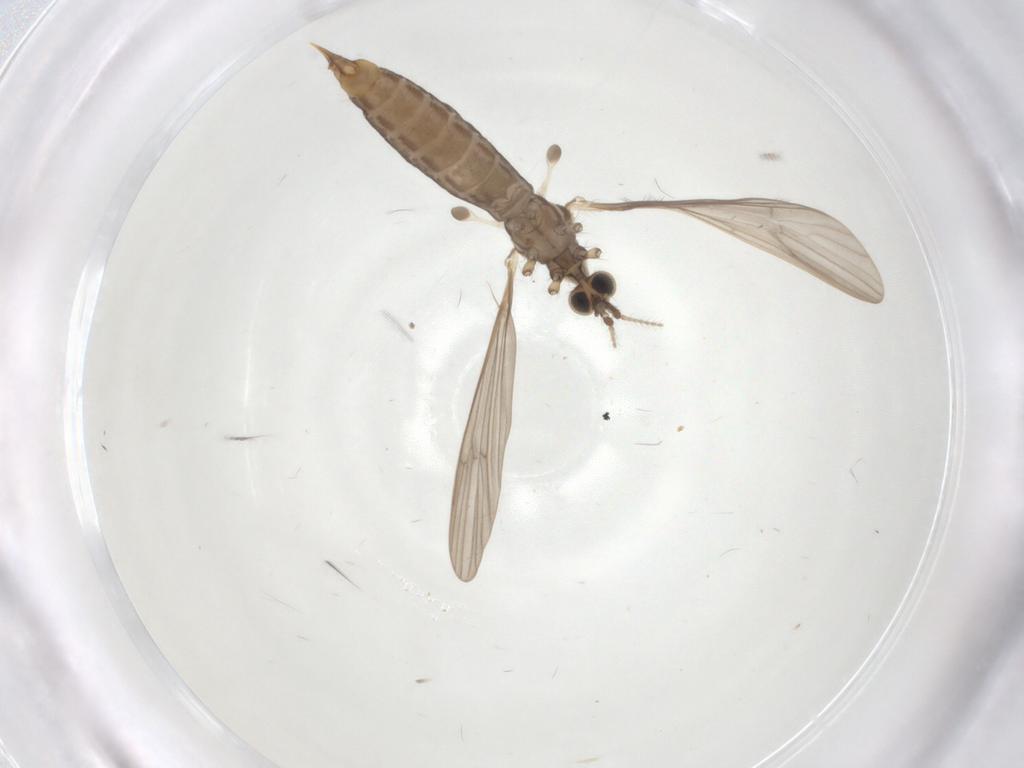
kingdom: Animalia
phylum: Arthropoda
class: Insecta
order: Diptera
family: Limoniidae
